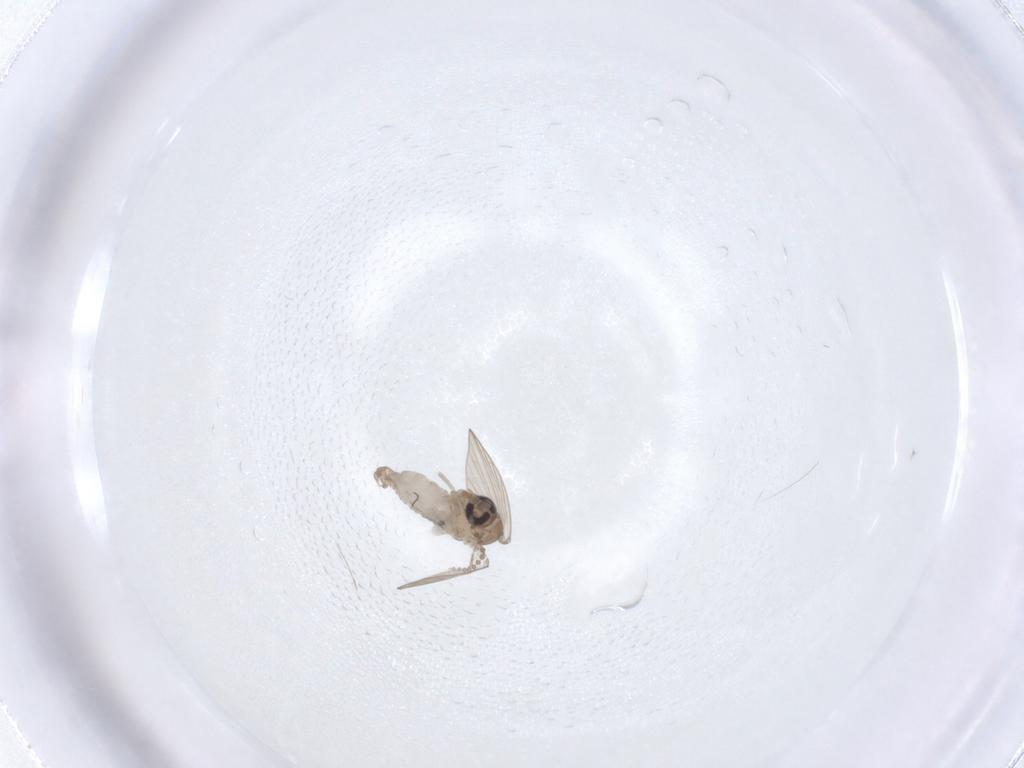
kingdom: Animalia
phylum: Arthropoda
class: Insecta
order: Diptera
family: Psychodidae
